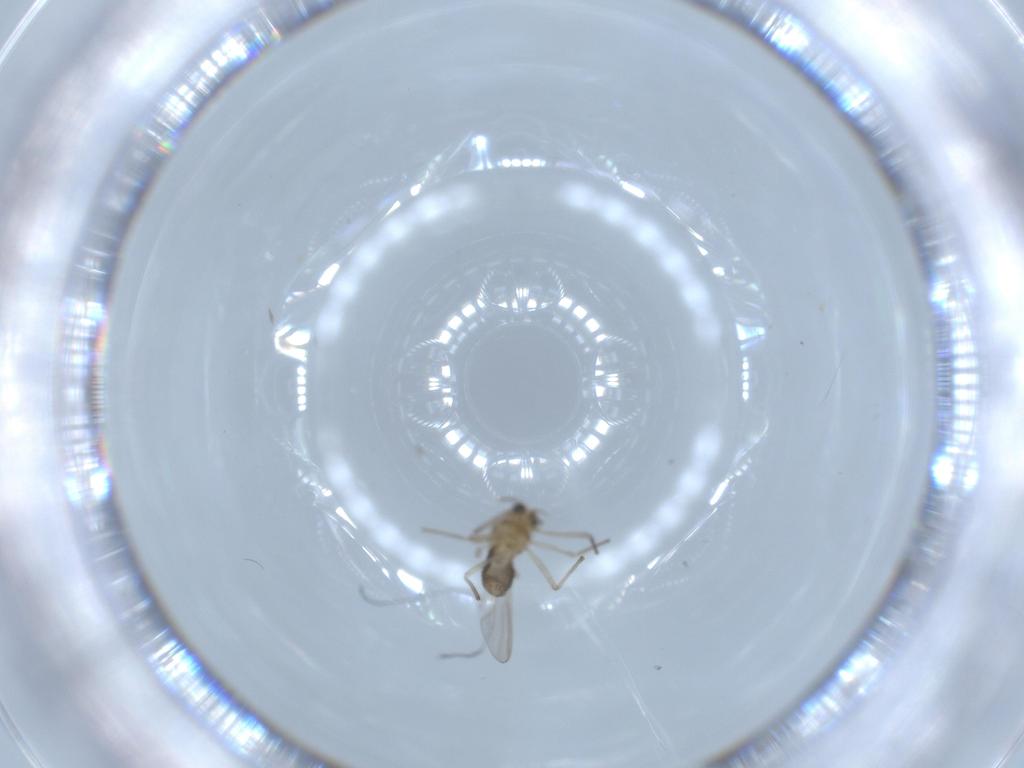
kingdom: Animalia
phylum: Arthropoda
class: Insecta
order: Diptera
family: Chironomidae
